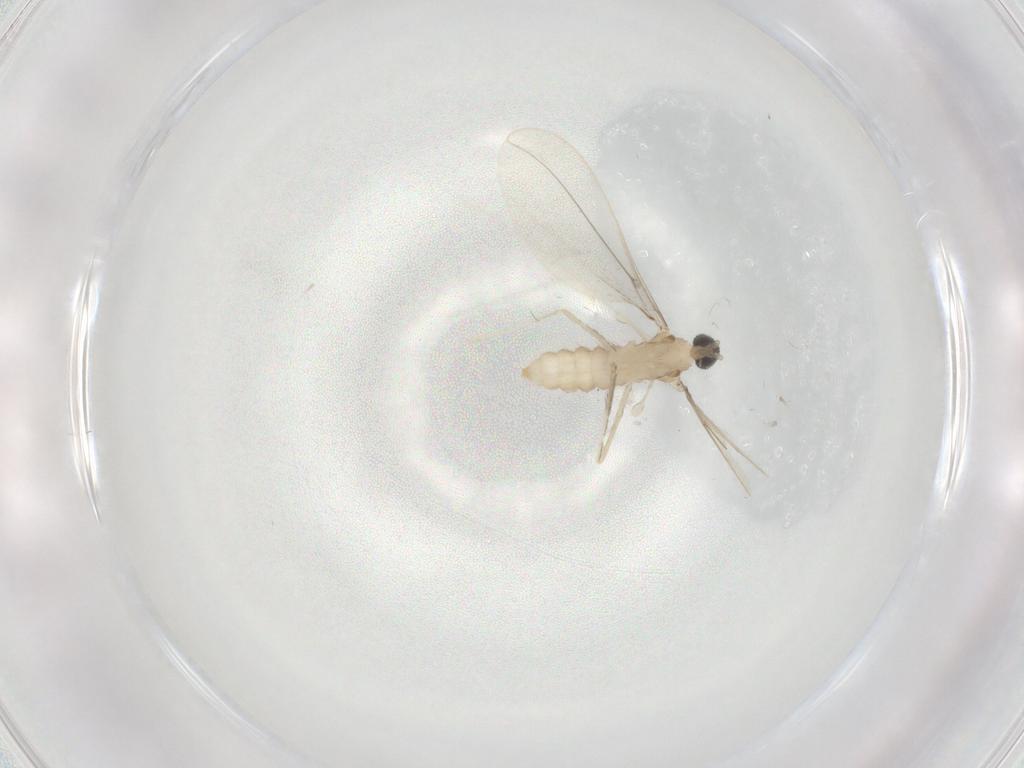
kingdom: Animalia
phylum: Arthropoda
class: Insecta
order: Diptera
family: Cecidomyiidae
